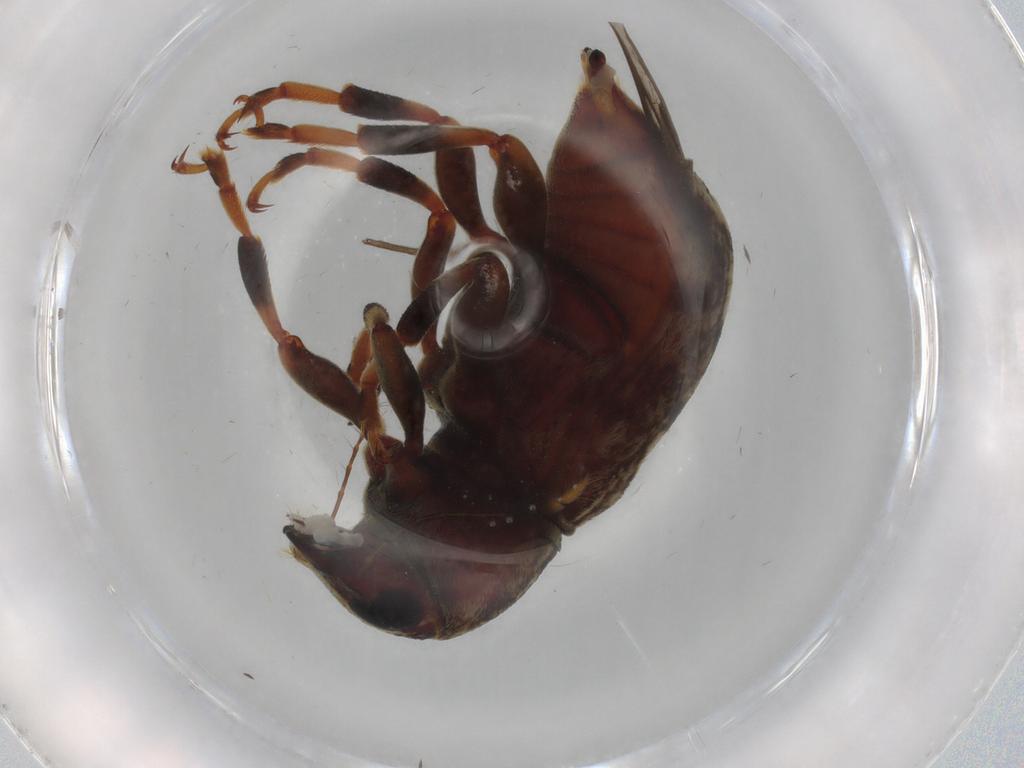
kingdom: Animalia
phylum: Arthropoda
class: Insecta
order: Coleoptera
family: Anthribidae
